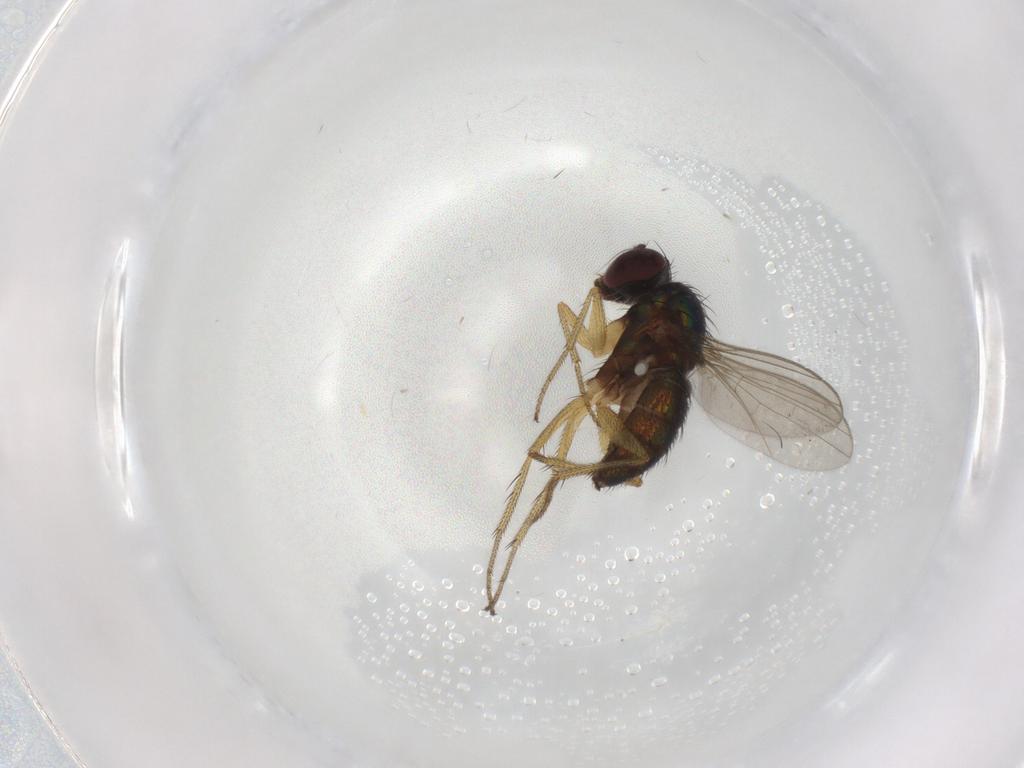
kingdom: Animalia
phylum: Arthropoda
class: Insecta
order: Diptera
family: Dolichopodidae
